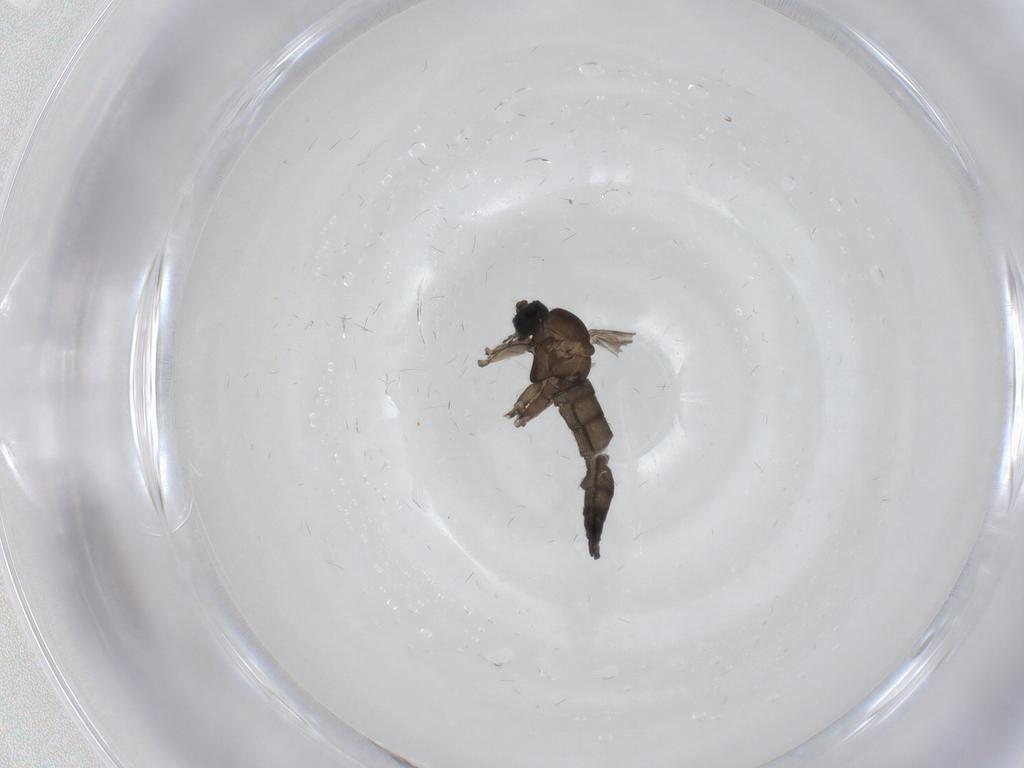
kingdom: Animalia
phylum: Arthropoda
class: Insecta
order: Diptera
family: Sciaridae
